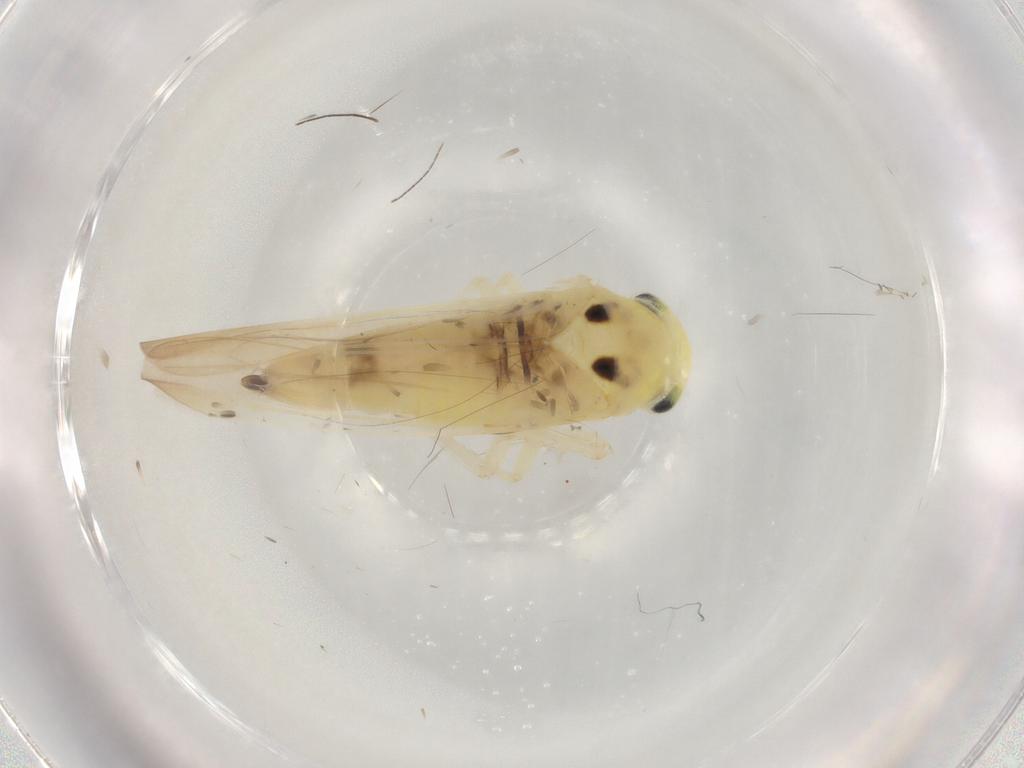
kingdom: Animalia
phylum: Arthropoda
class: Insecta
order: Hemiptera
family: Cicadellidae
